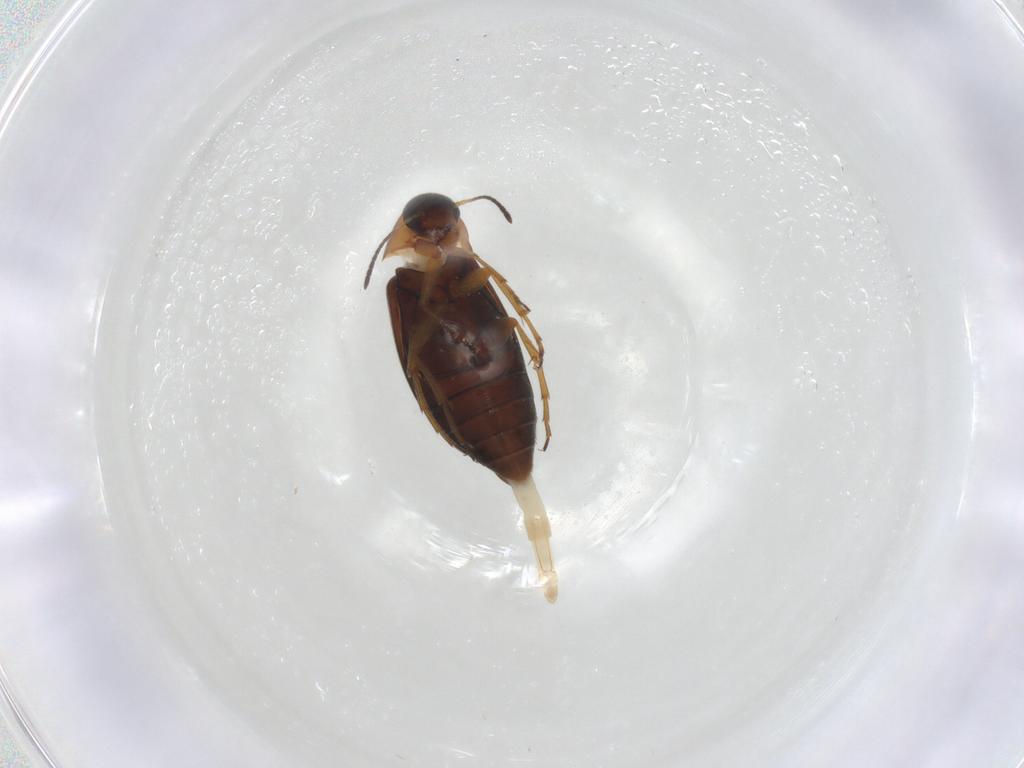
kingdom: Animalia
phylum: Arthropoda
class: Insecta
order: Coleoptera
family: Scraptiidae
